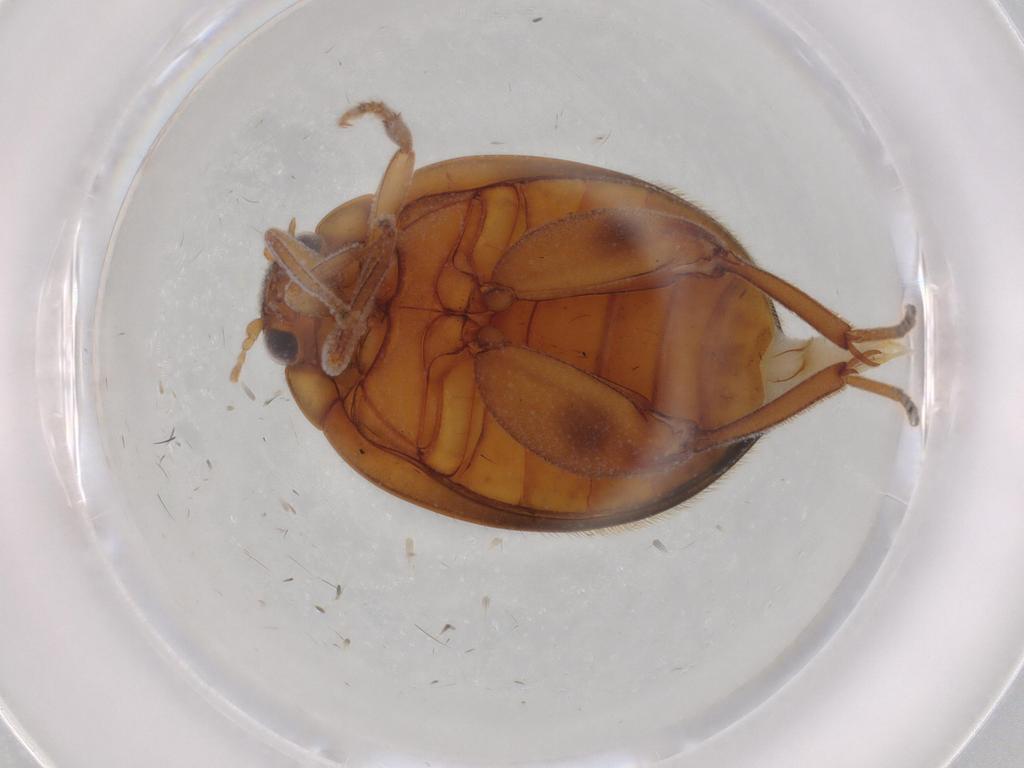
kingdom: Animalia
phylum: Arthropoda
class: Insecta
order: Coleoptera
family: Scirtidae
